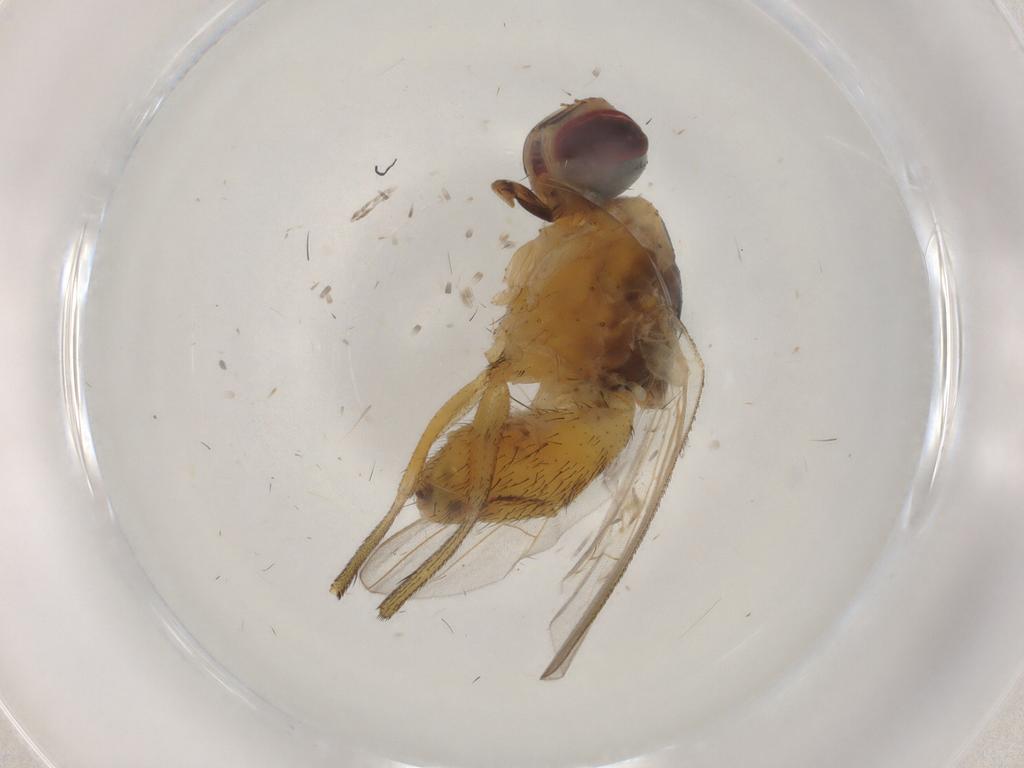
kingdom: Animalia
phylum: Arthropoda
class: Insecta
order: Diptera
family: Muscidae
